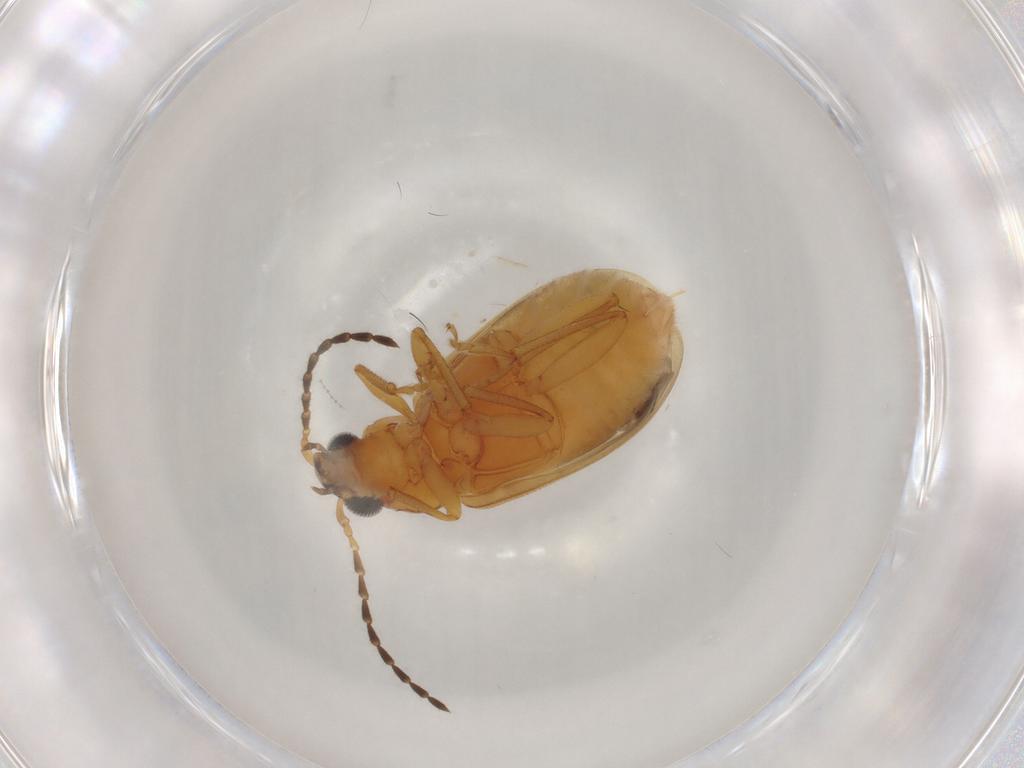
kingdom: Animalia
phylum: Arthropoda
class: Insecta
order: Coleoptera
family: Chrysomelidae
